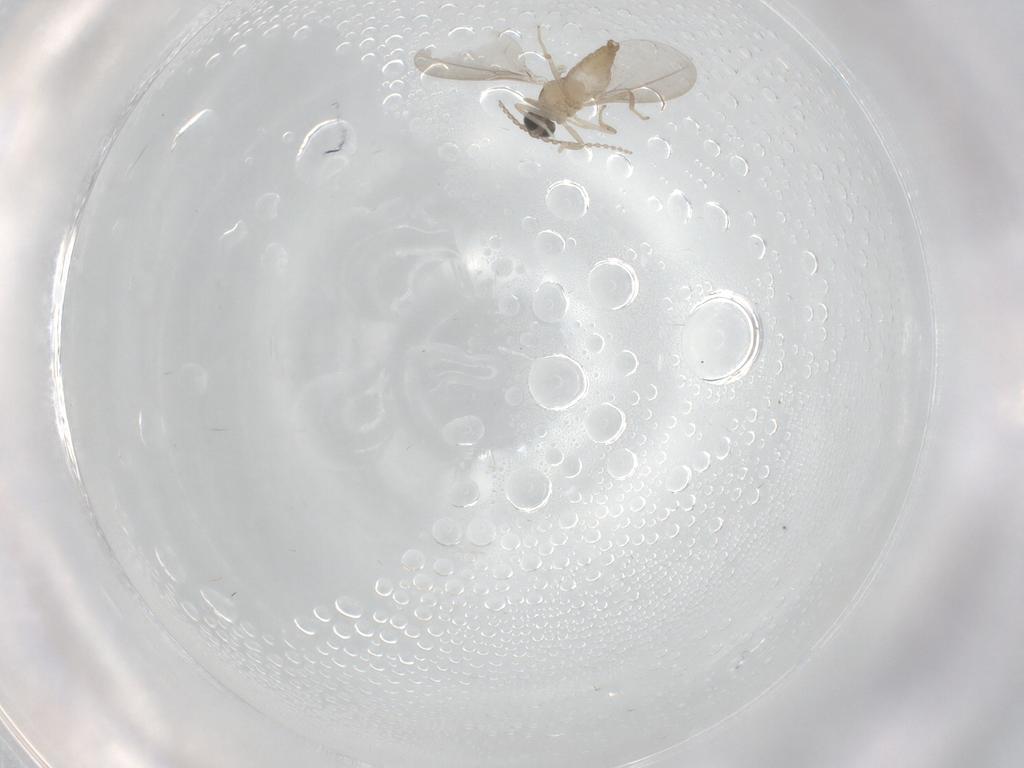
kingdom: Animalia
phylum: Arthropoda
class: Insecta
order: Diptera
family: Cecidomyiidae
